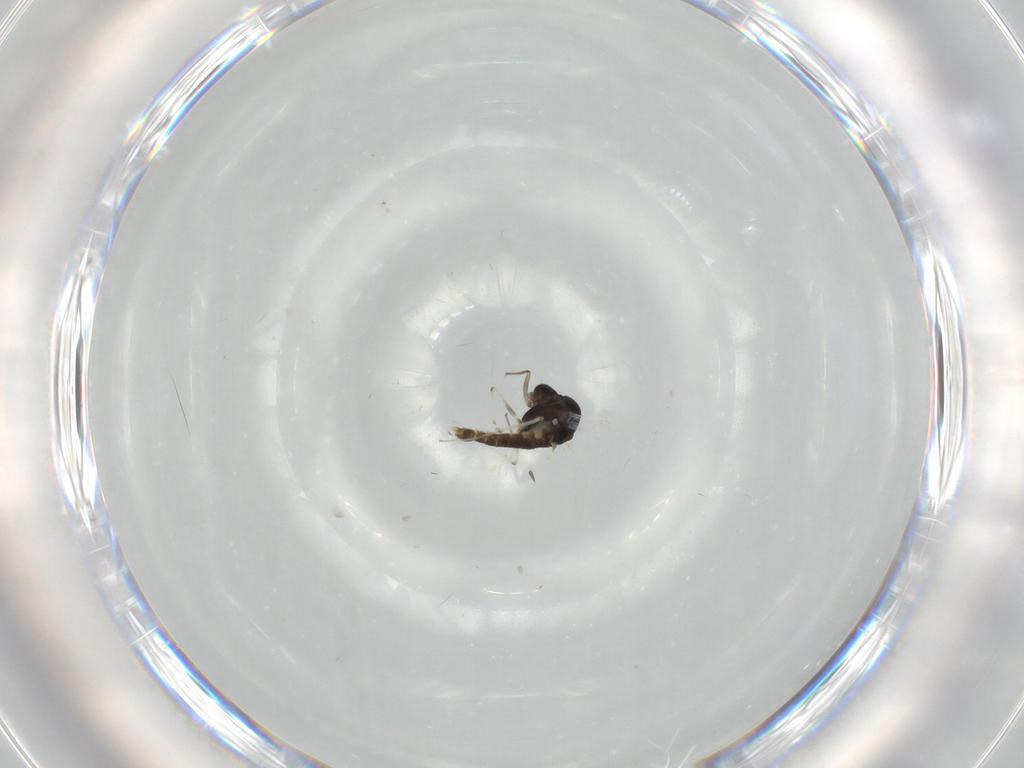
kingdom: Animalia
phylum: Arthropoda
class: Insecta
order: Diptera
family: Chironomidae
